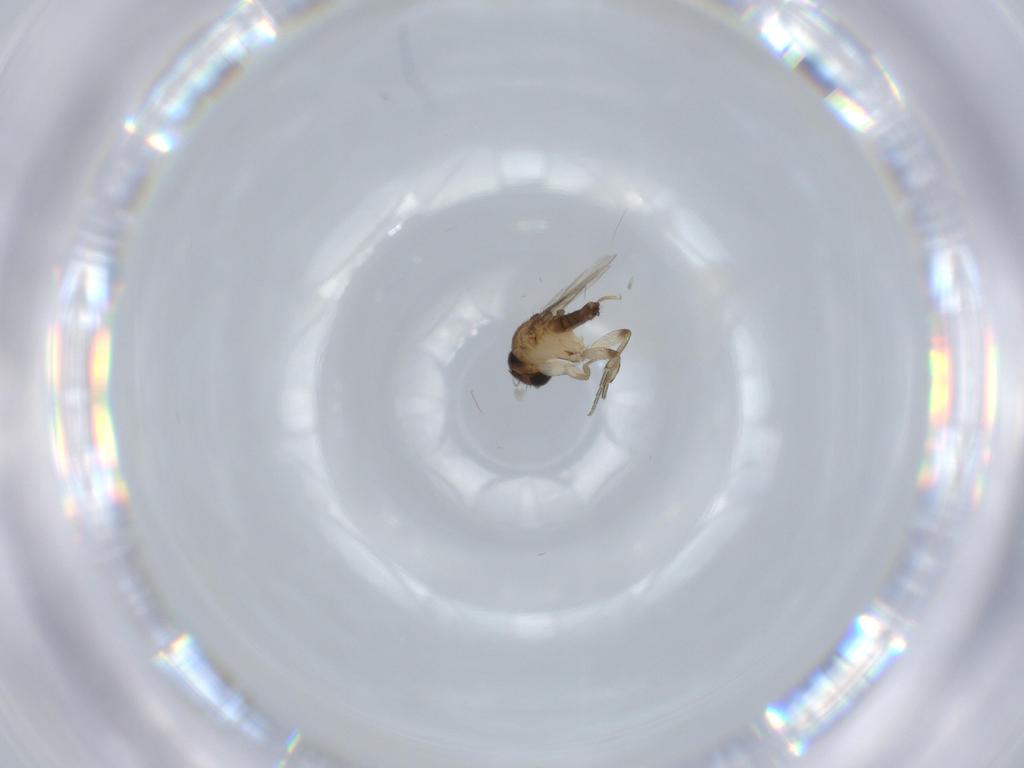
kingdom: Animalia
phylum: Arthropoda
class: Insecta
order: Diptera
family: Phoridae
